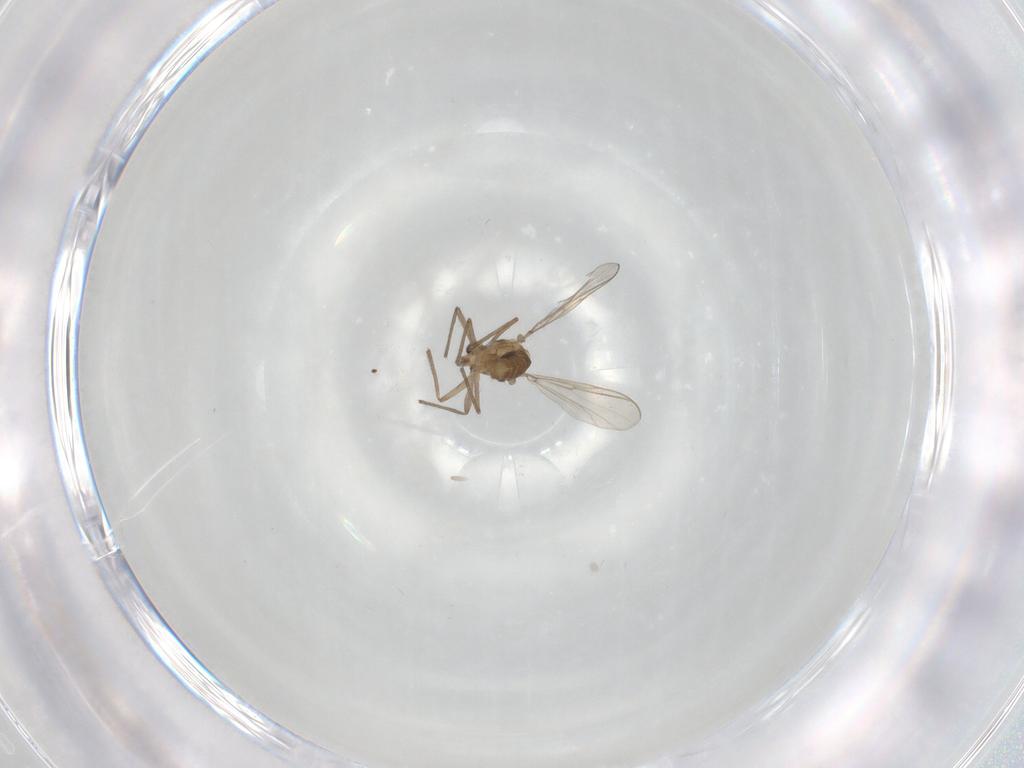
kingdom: Animalia
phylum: Arthropoda
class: Insecta
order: Diptera
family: Chironomidae
